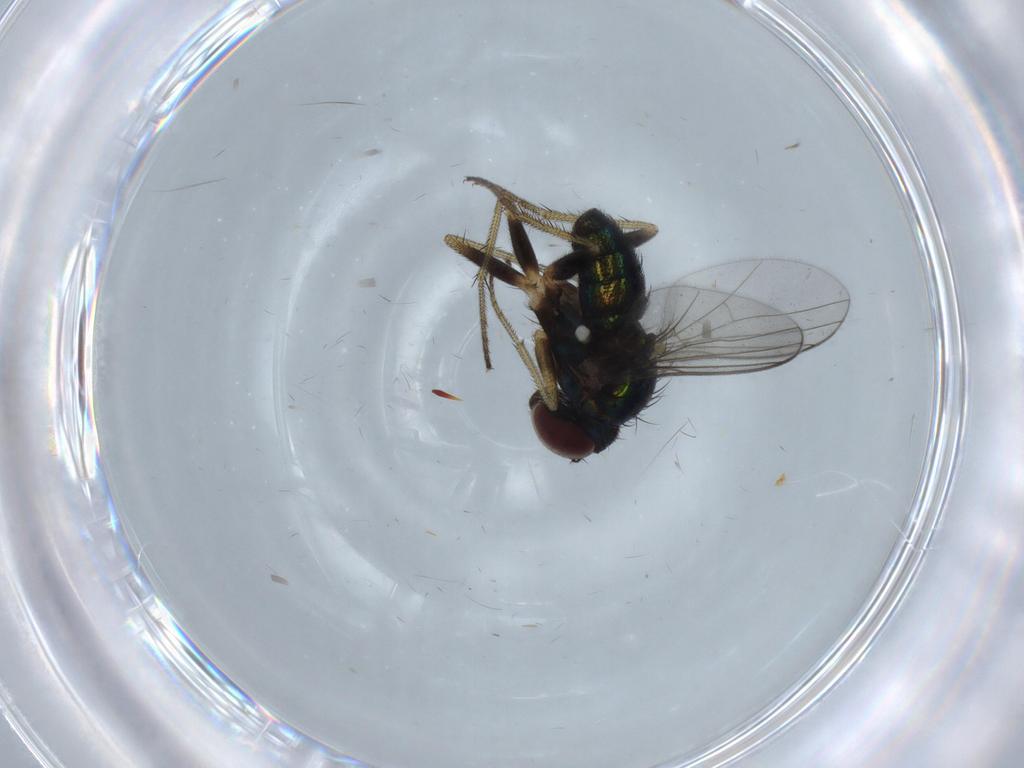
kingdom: Animalia
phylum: Arthropoda
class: Insecta
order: Diptera
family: Dolichopodidae
